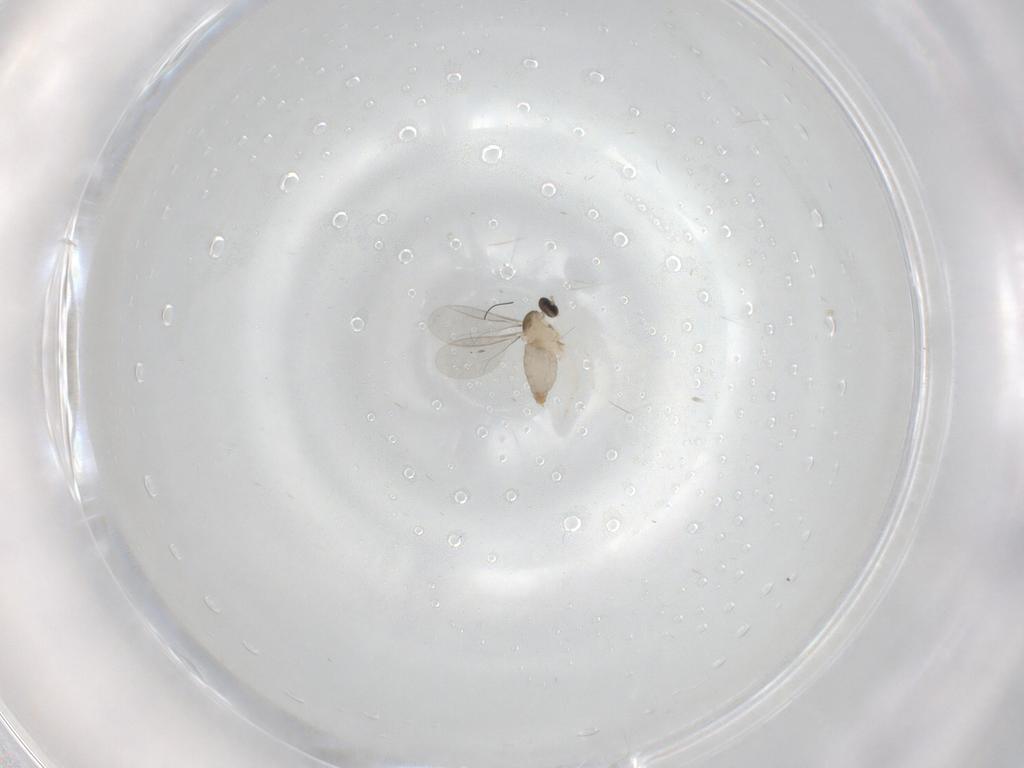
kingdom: Animalia
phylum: Arthropoda
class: Insecta
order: Diptera
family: Cecidomyiidae
